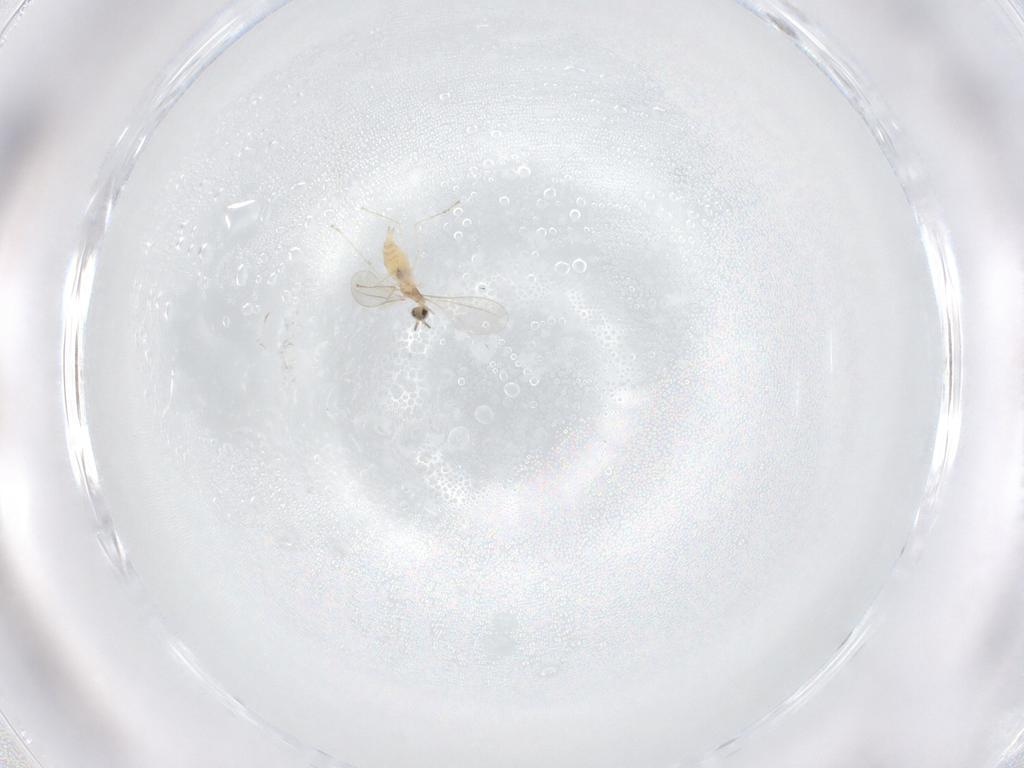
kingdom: Animalia
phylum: Arthropoda
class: Insecta
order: Diptera
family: Cecidomyiidae
